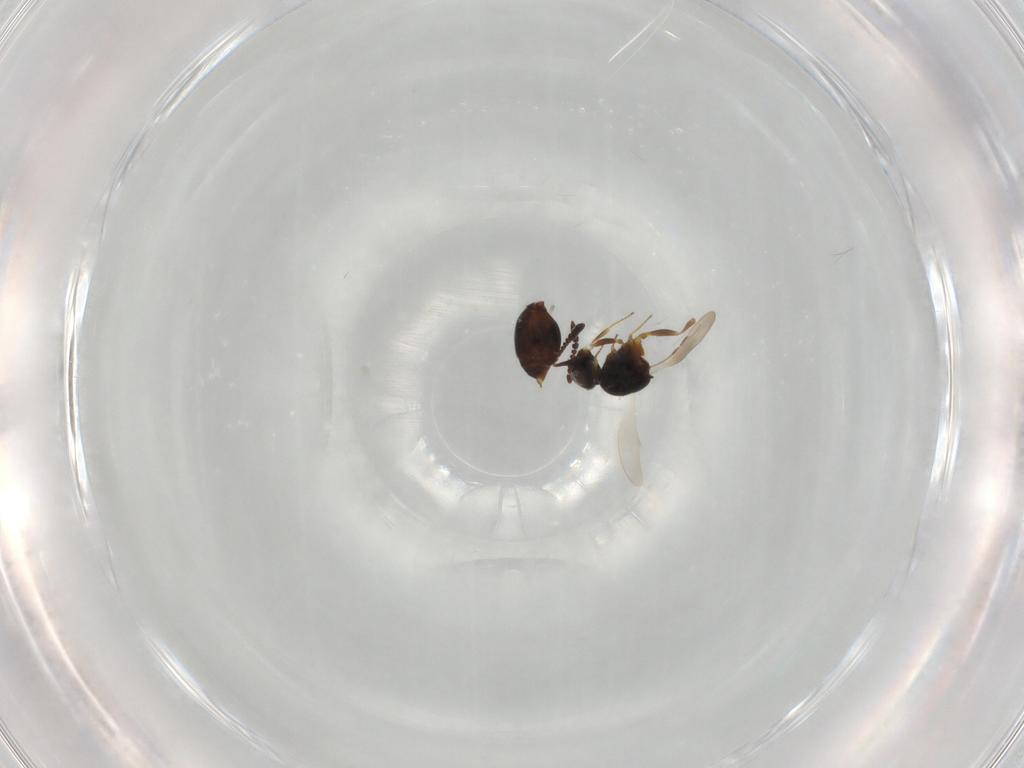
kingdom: Animalia
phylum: Arthropoda
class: Insecta
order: Hymenoptera
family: Ceraphronidae
